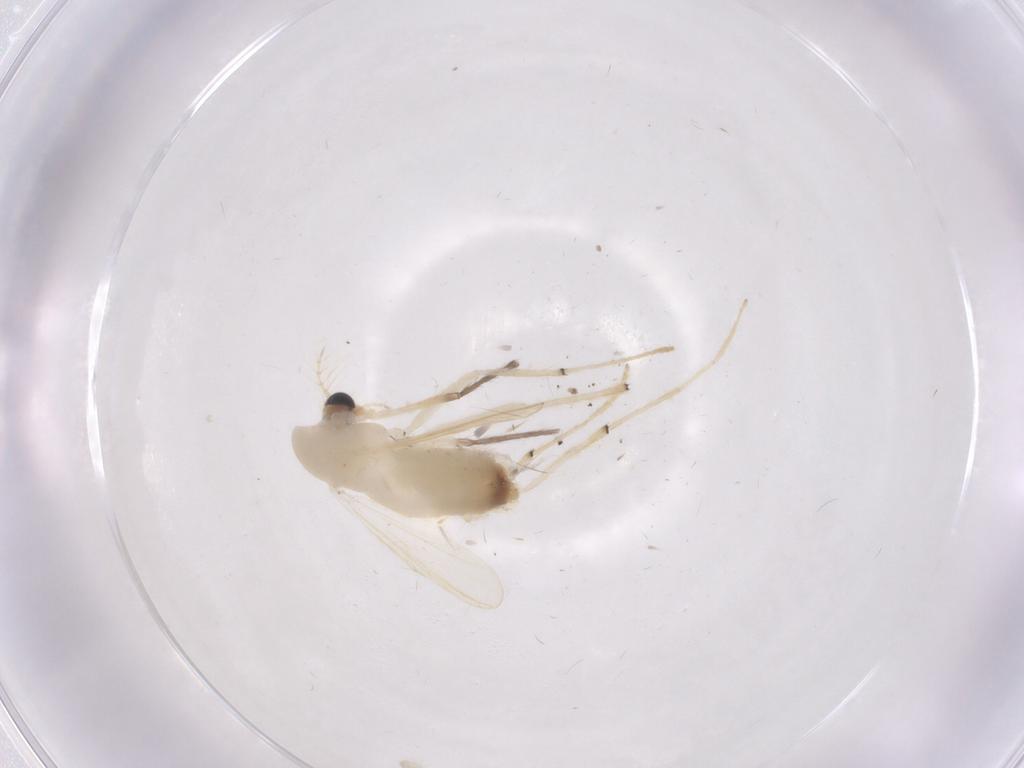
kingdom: Animalia
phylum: Arthropoda
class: Insecta
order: Diptera
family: Chironomidae
